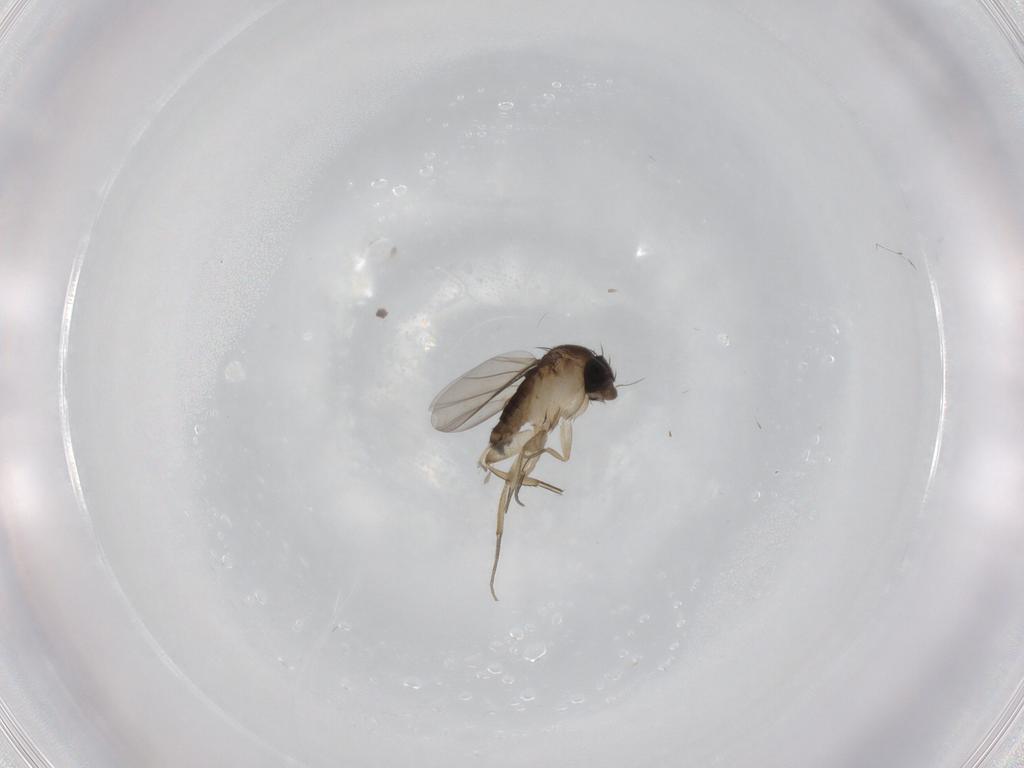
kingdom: Animalia
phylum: Arthropoda
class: Insecta
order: Diptera
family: Phoridae
